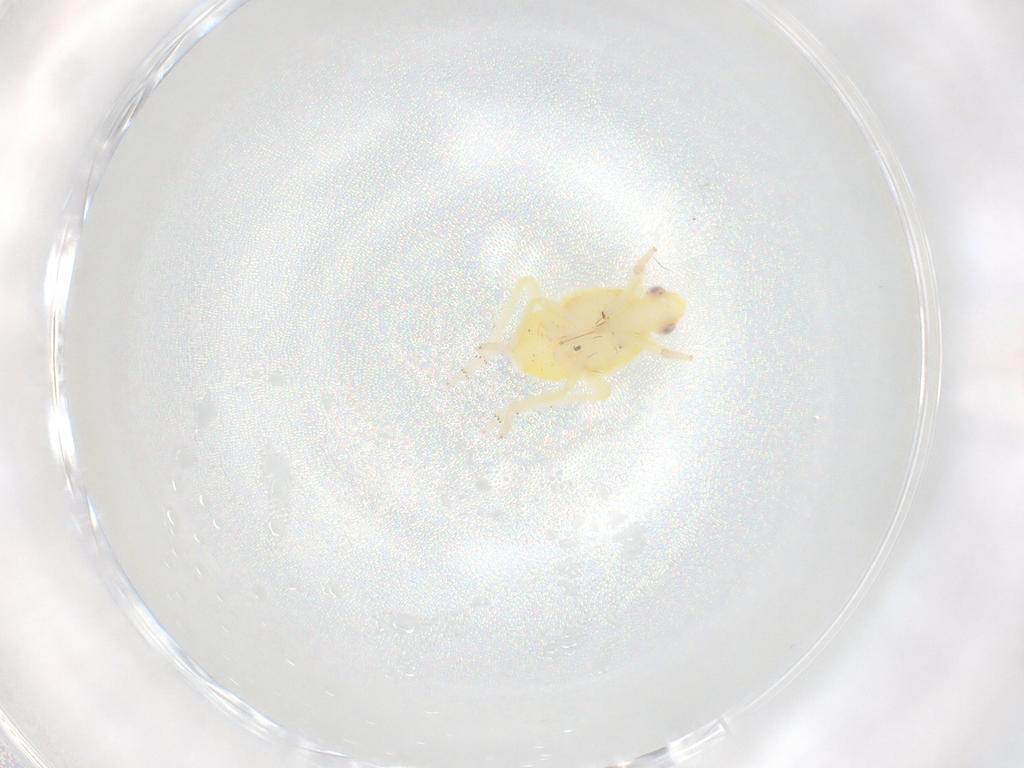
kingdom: Animalia
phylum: Arthropoda
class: Insecta
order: Hemiptera
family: Tropiduchidae
